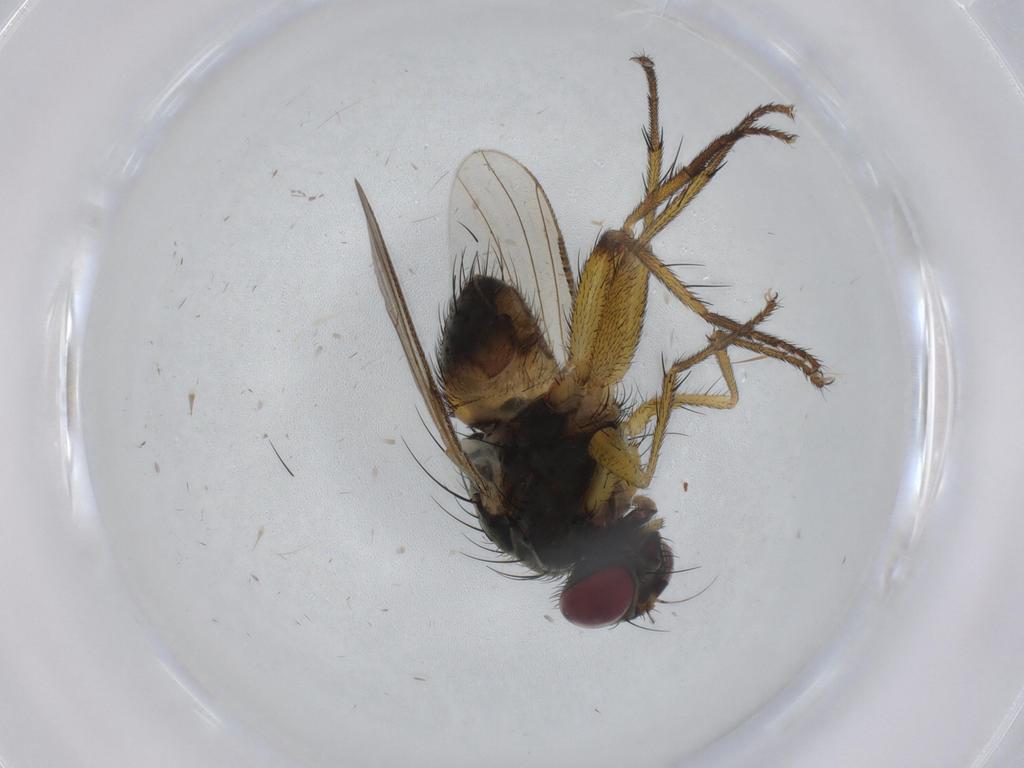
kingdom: Animalia
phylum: Arthropoda
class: Insecta
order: Diptera
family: Muscidae
